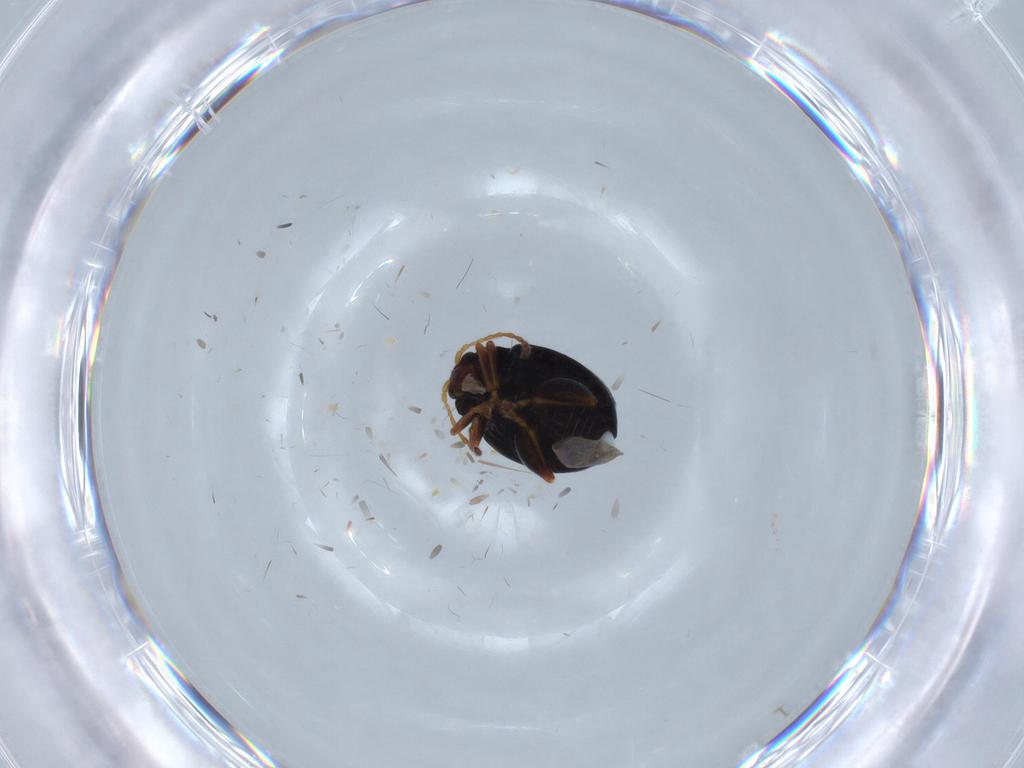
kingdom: Animalia
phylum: Arthropoda
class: Insecta
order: Coleoptera
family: Chrysomelidae
